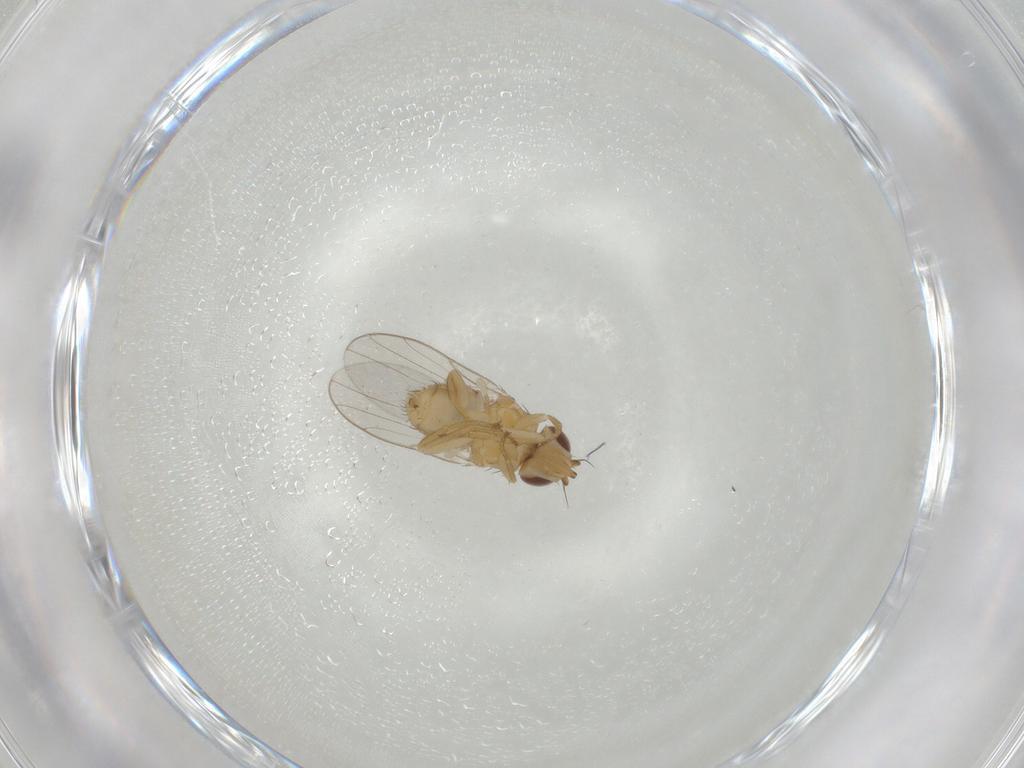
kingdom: Animalia
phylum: Arthropoda
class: Insecta
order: Diptera
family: Chloropidae
